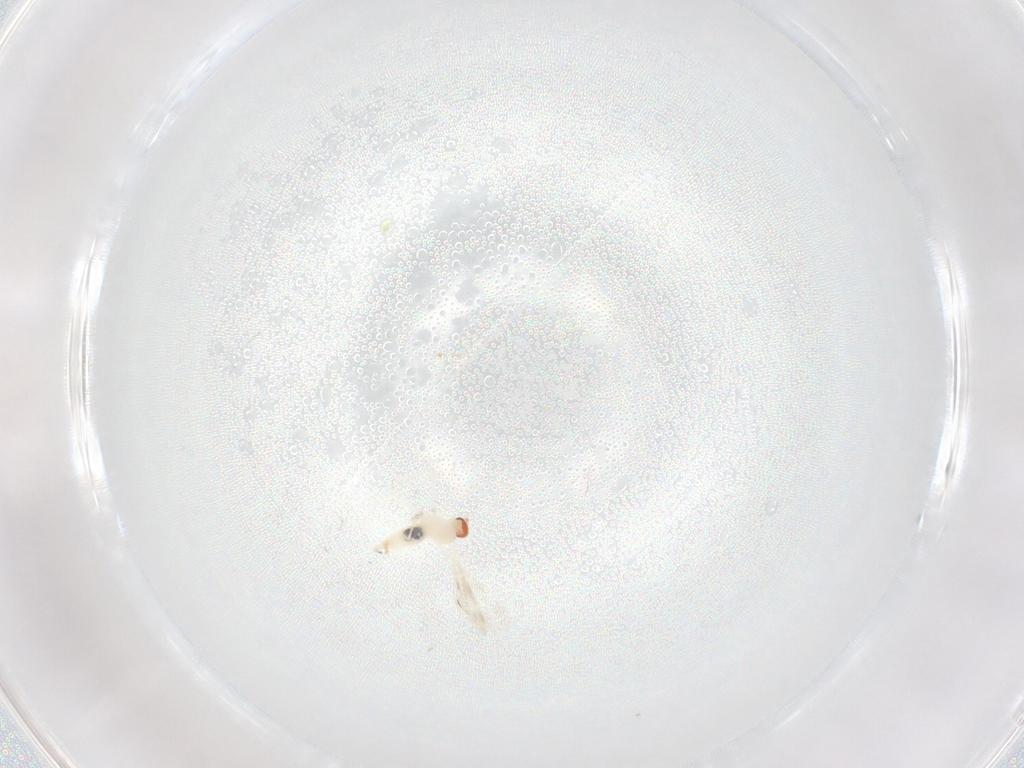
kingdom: Animalia
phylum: Arthropoda
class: Insecta
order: Diptera
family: Cecidomyiidae
